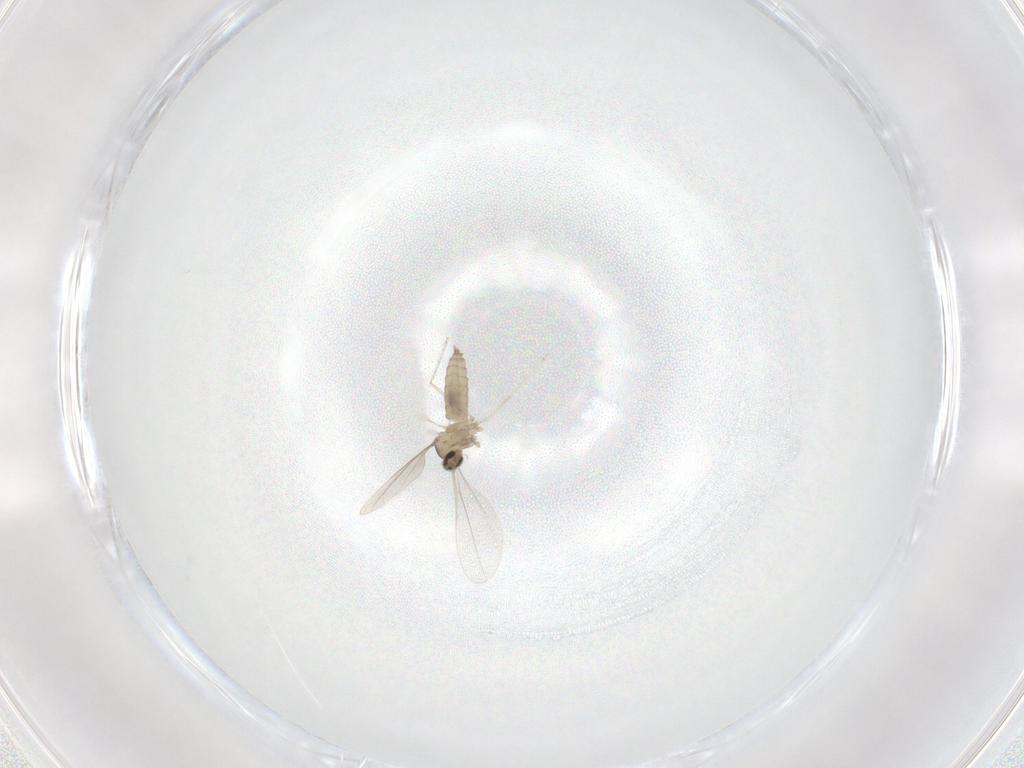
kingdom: Animalia
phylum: Arthropoda
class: Insecta
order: Diptera
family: Cecidomyiidae
